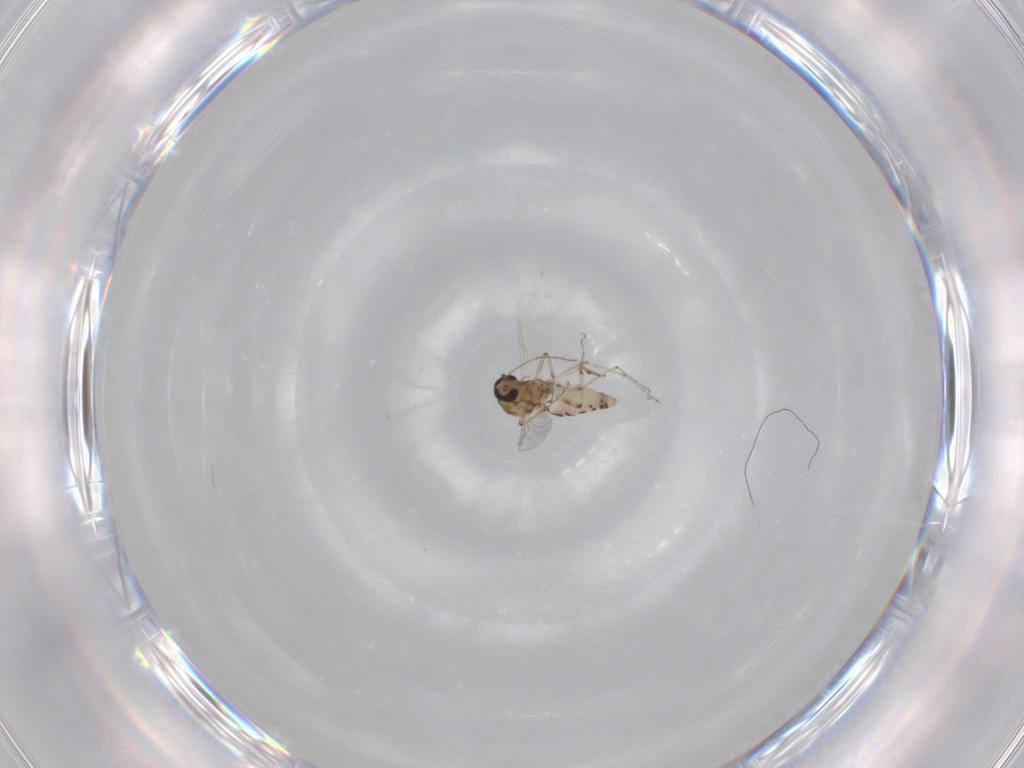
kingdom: Animalia
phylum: Arthropoda
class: Insecta
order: Diptera
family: Ceratopogonidae
